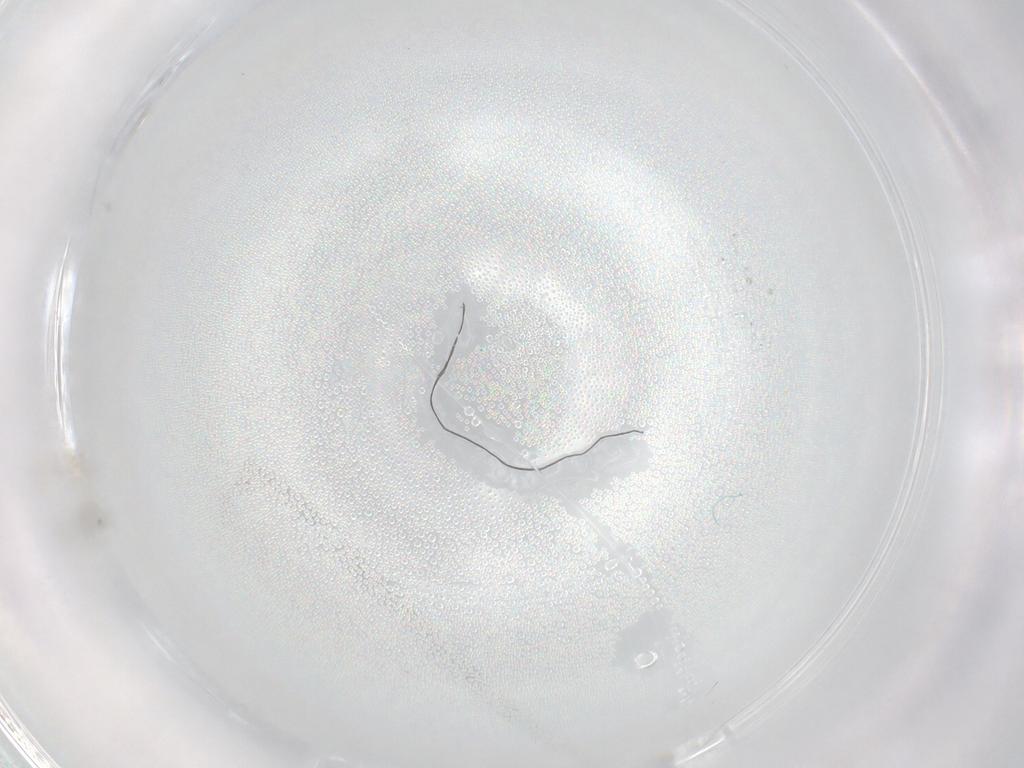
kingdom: Animalia
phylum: Arthropoda
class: Insecta
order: Diptera
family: Cecidomyiidae
